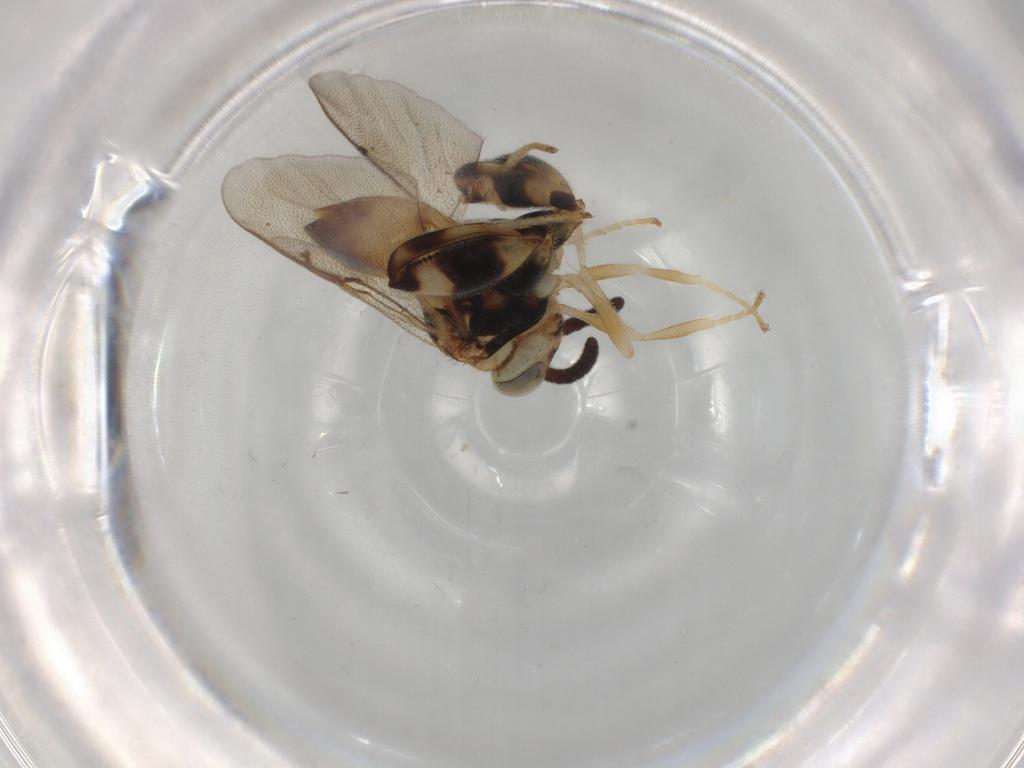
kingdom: Animalia
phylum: Arthropoda
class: Insecta
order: Hymenoptera
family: Chalcididae
